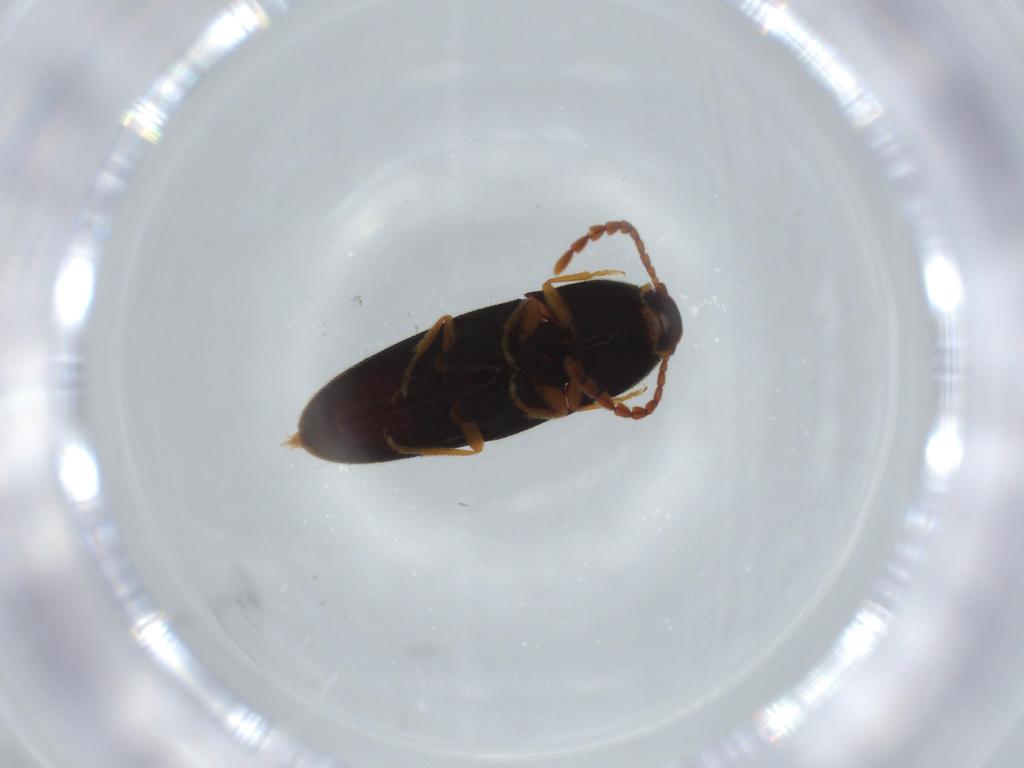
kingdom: Animalia
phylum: Arthropoda
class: Insecta
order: Coleoptera
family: Elateridae
